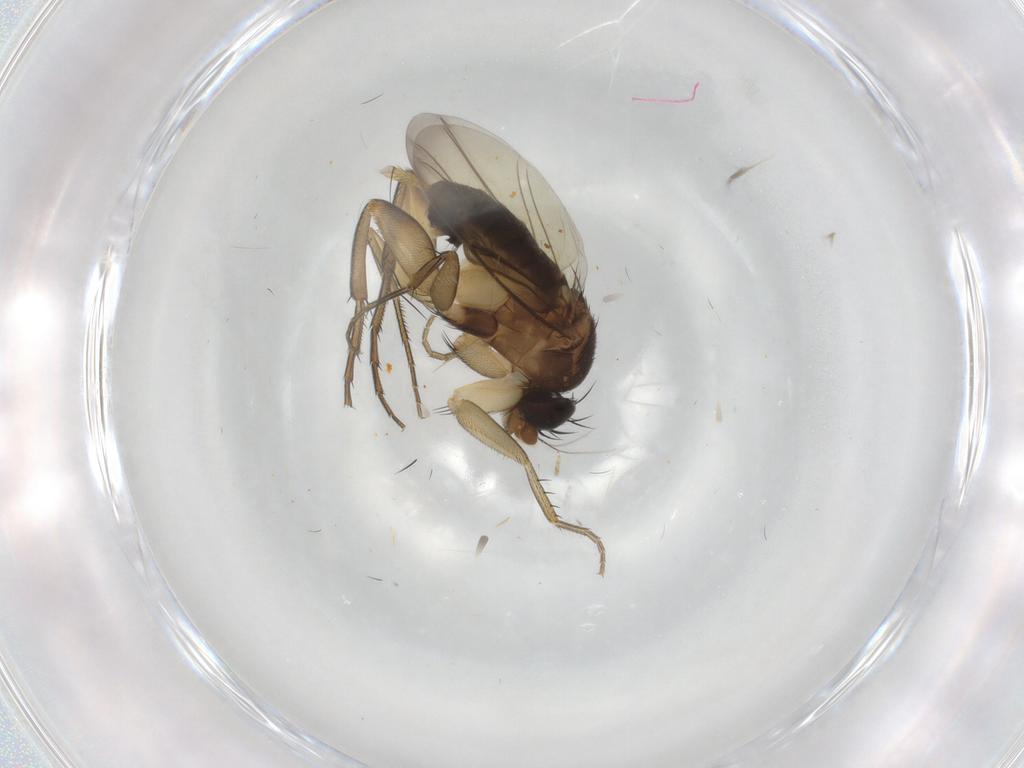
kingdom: Animalia
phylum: Arthropoda
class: Insecta
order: Diptera
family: Phoridae
